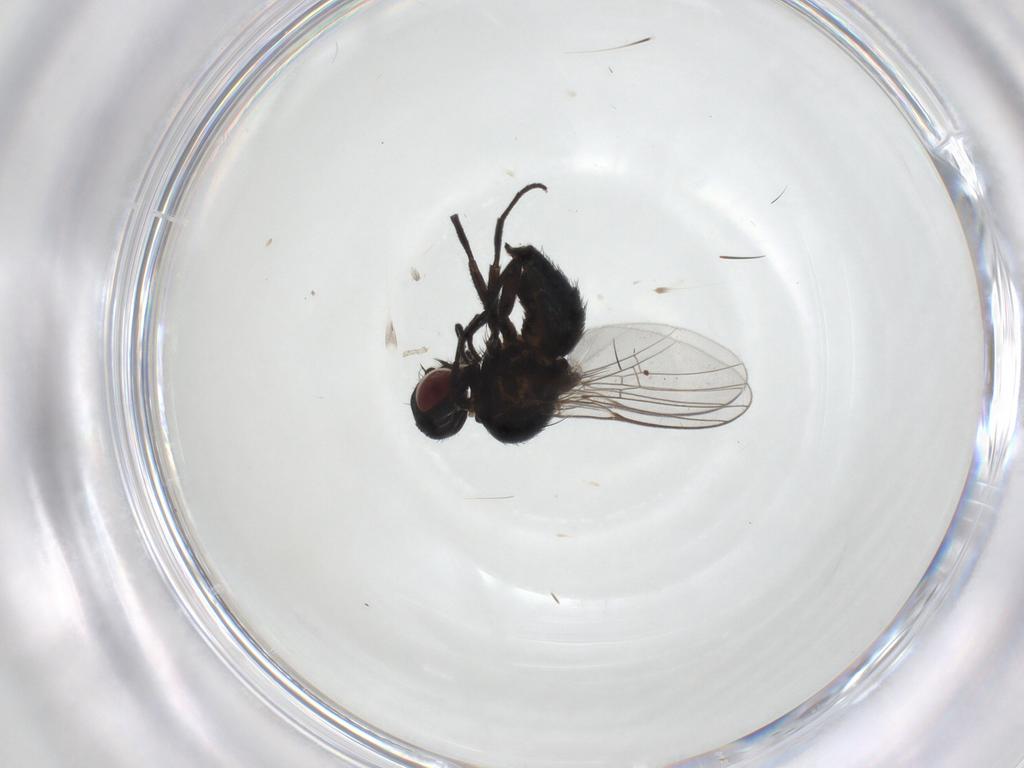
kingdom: Animalia
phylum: Arthropoda
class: Insecta
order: Diptera
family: Agromyzidae
